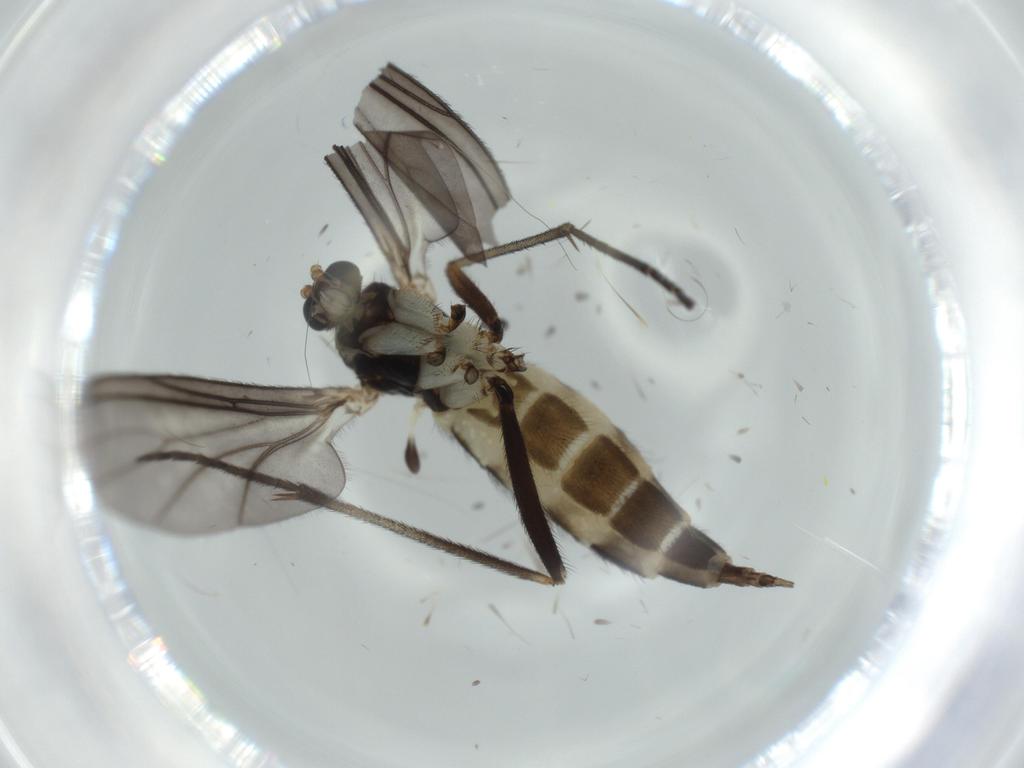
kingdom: Animalia
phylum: Arthropoda
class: Insecta
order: Diptera
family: Sciaridae
